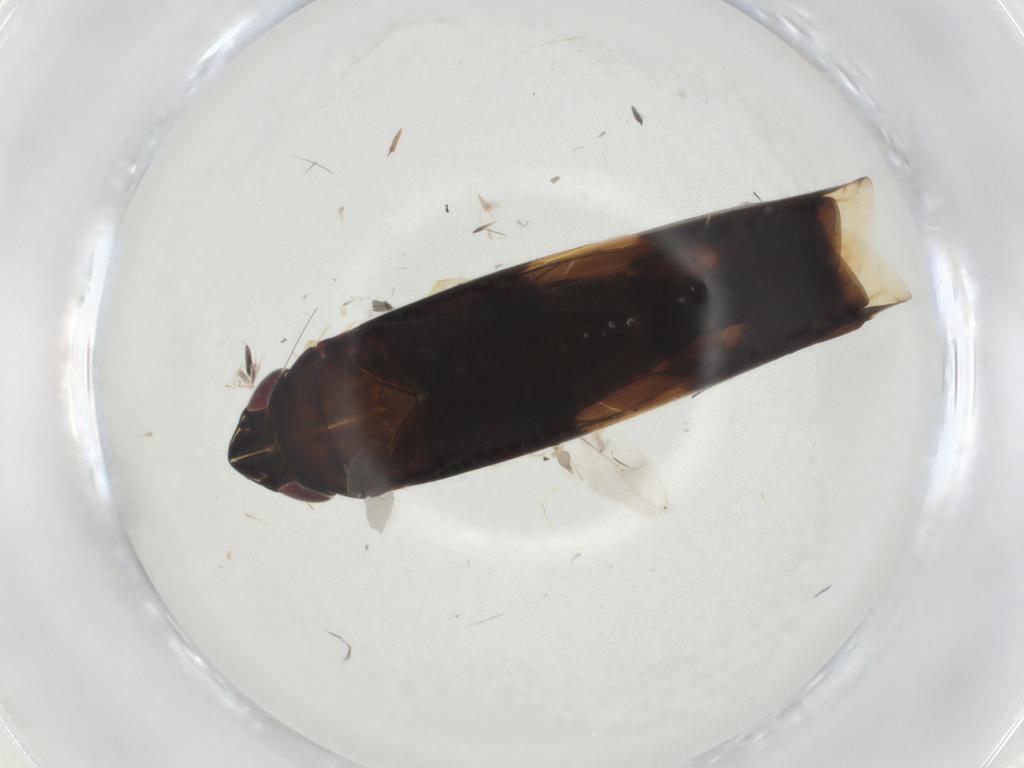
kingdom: Animalia
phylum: Arthropoda
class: Insecta
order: Hemiptera
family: Cicadellidae
